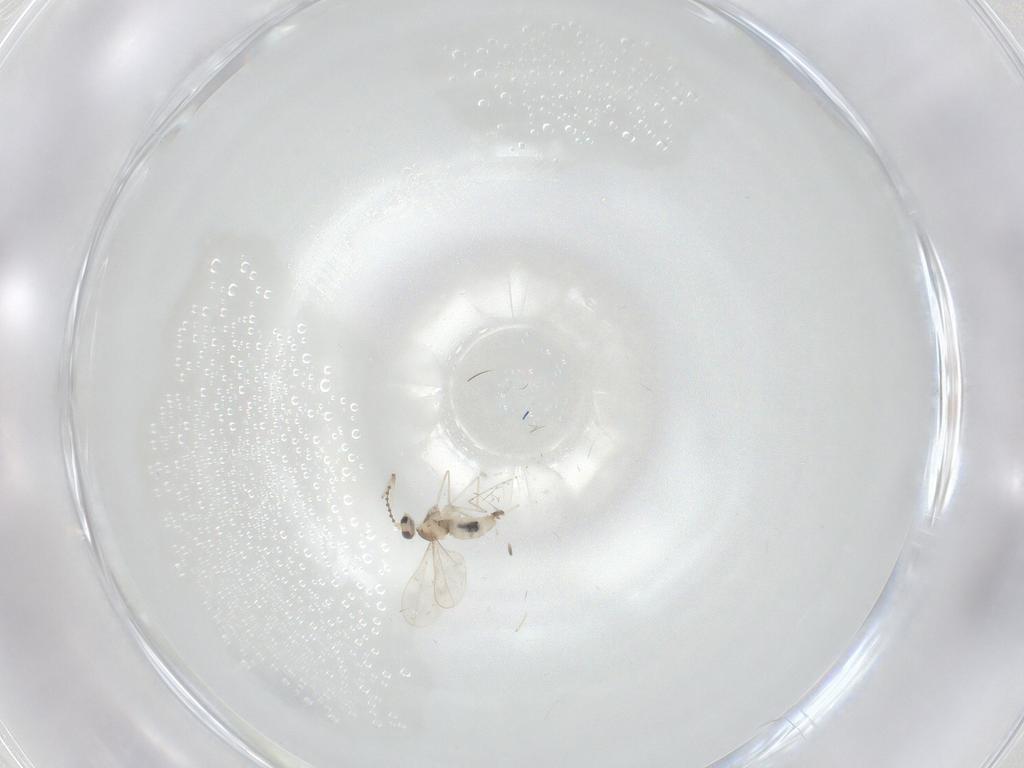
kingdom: Animalia
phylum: Arthropoda
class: Insecta
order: Diptera
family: Cecidomyiidae
